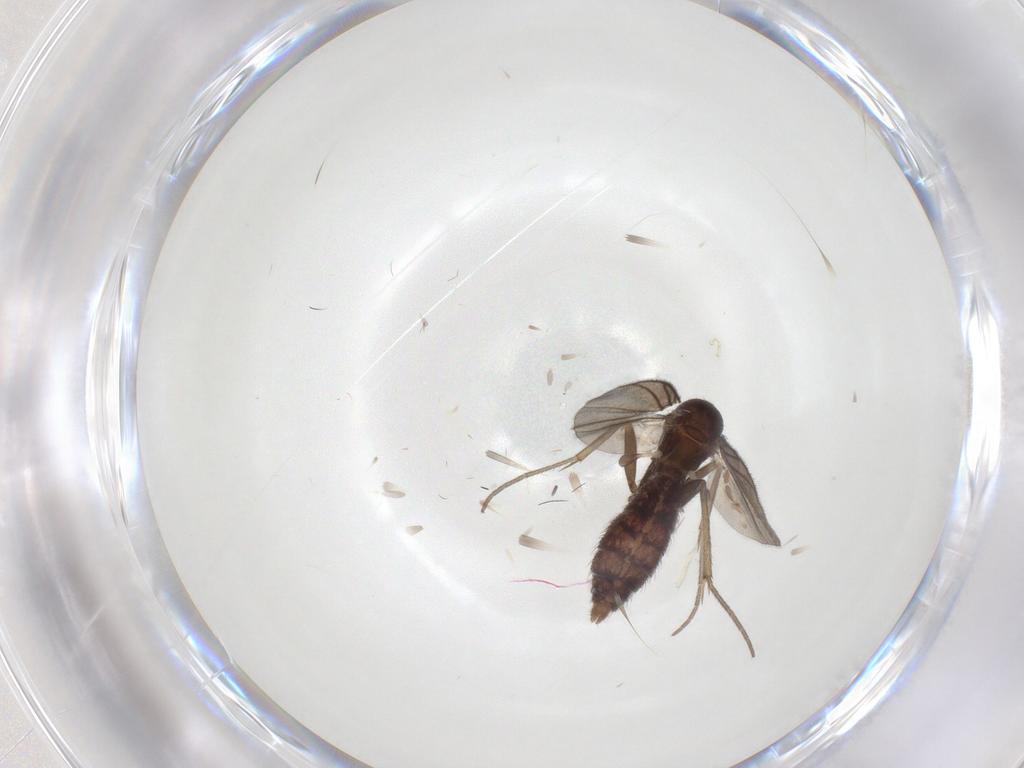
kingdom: Animalia
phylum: Arthropoda
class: Insecta
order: Diptera
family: Mycetophilidae
